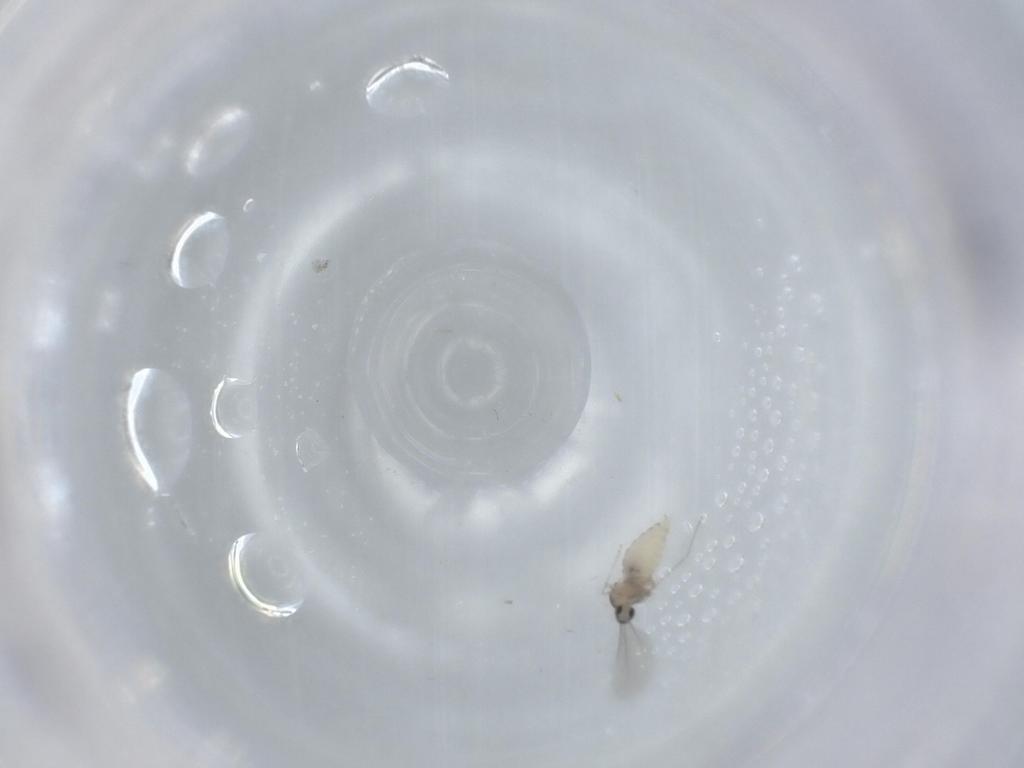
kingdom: Animalia
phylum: Arthropoda
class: Insecta
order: Diptera
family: Cecidomyiidae
